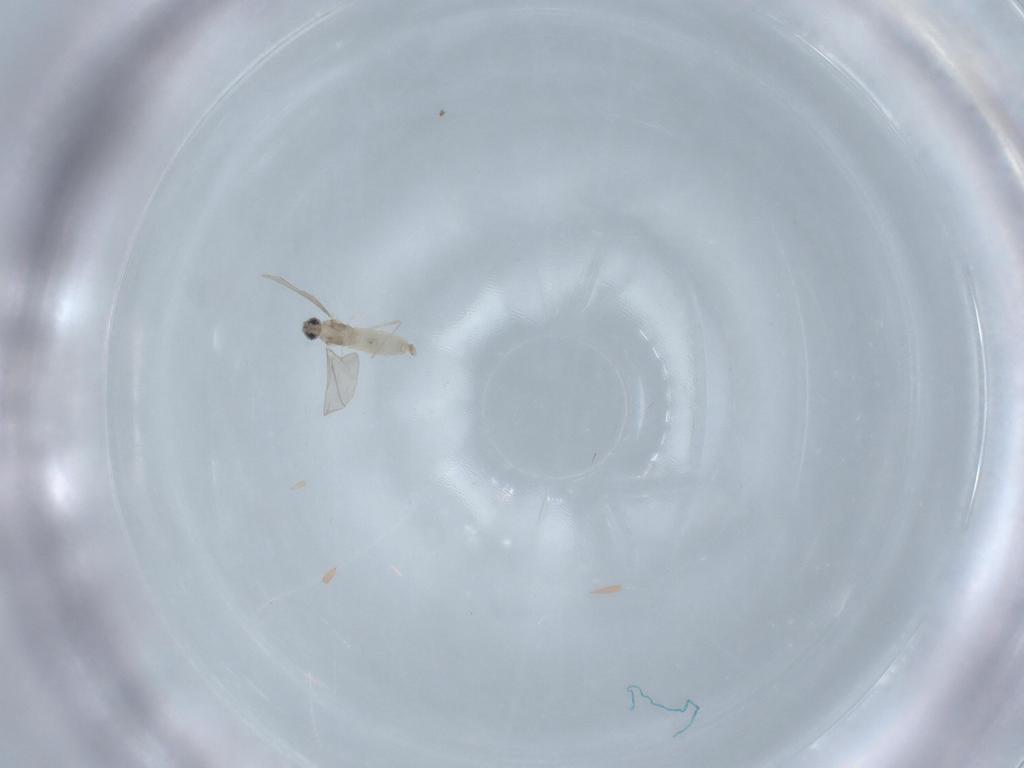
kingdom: Animalia
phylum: Arthropoda
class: Insecta
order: Diptera
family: Cecidomyiidae
